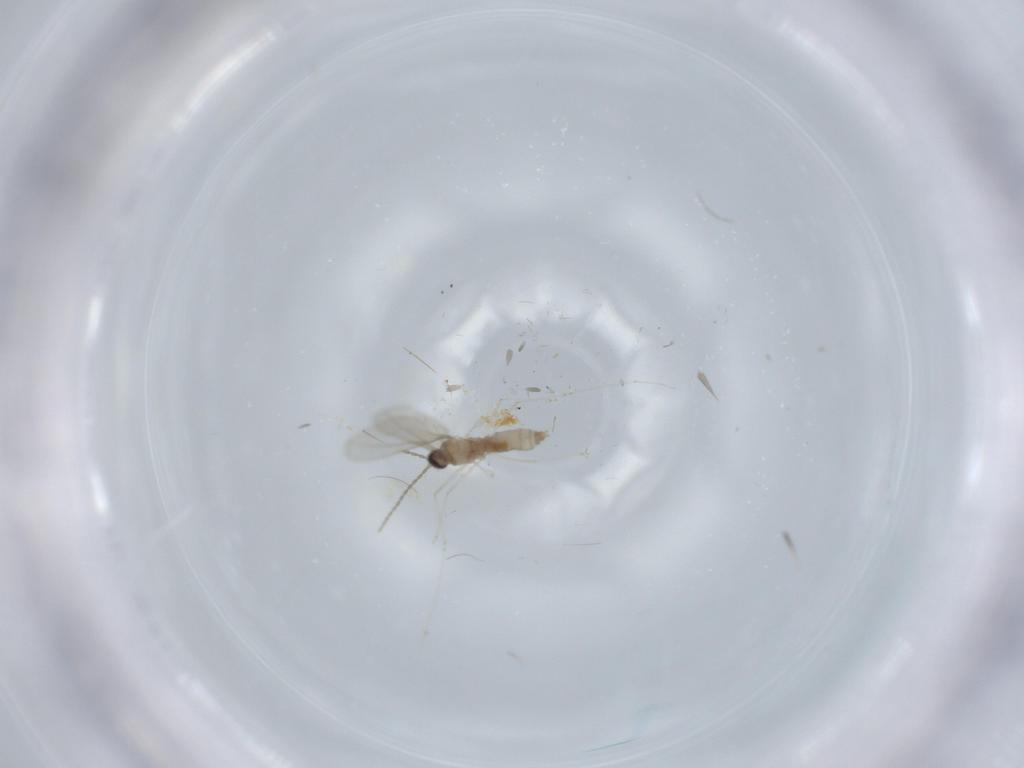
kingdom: Animalia
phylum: Arthropoda
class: Insecta
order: Diptera
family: Cecidomyiidae
